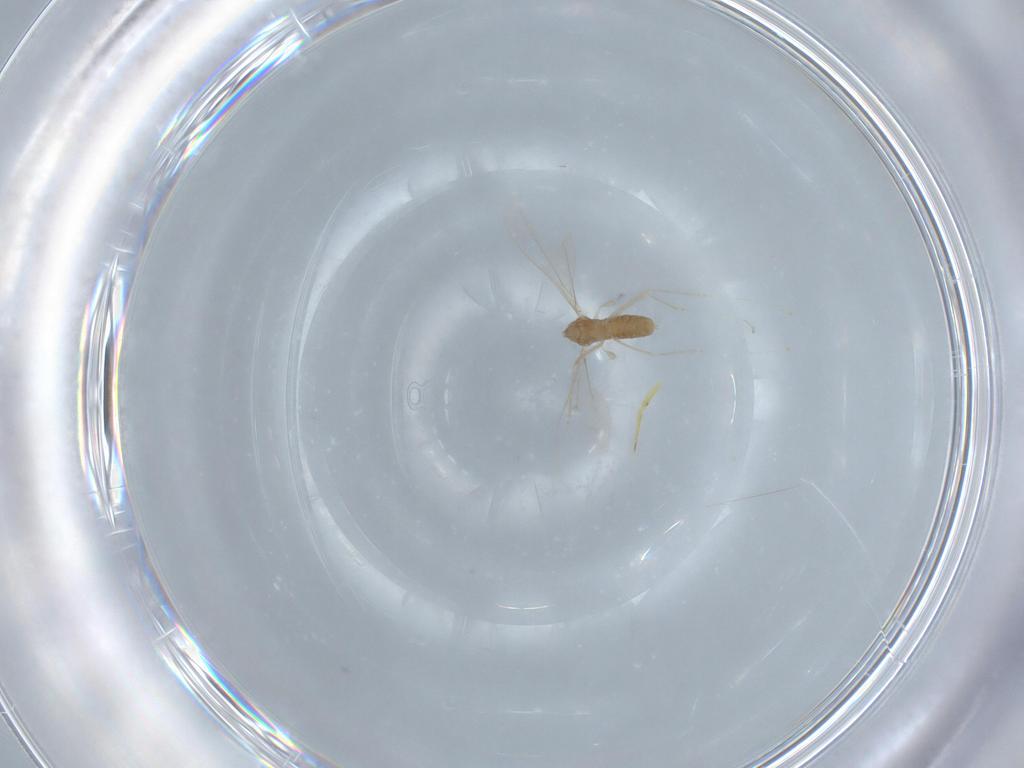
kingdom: Animalia
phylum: Arthropoda
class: Insecta
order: Diptera
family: Cecidomyiidae
